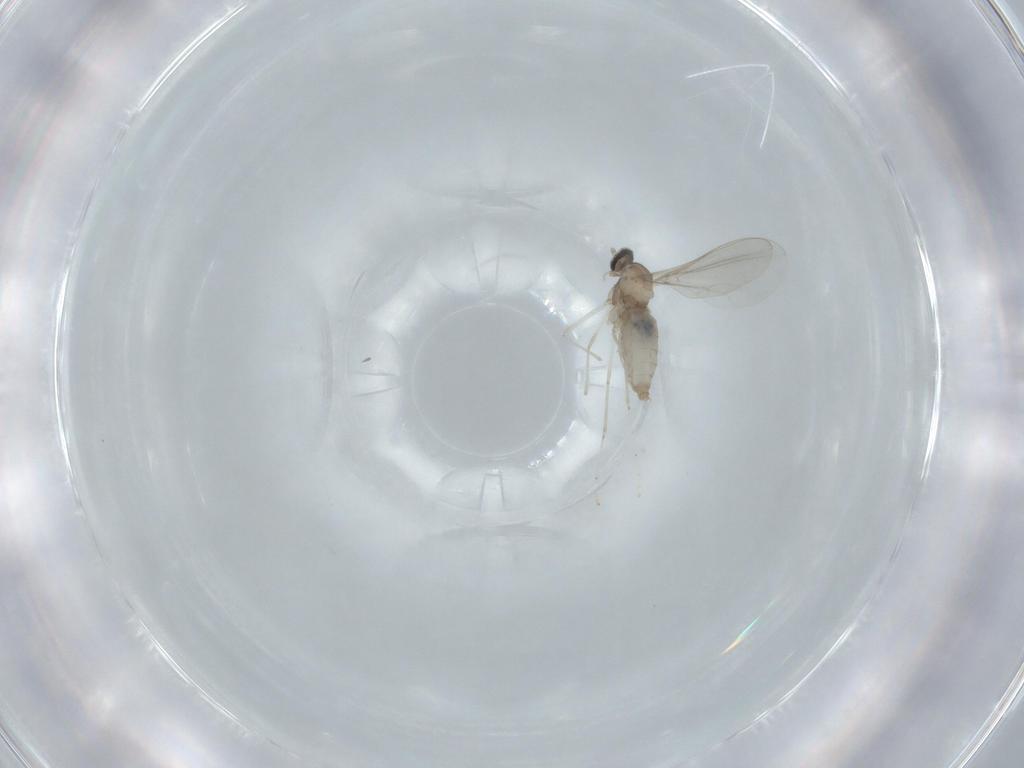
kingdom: Animalia
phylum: Arthropoda
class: Insecta
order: Diptera
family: Cecidomyiidae
